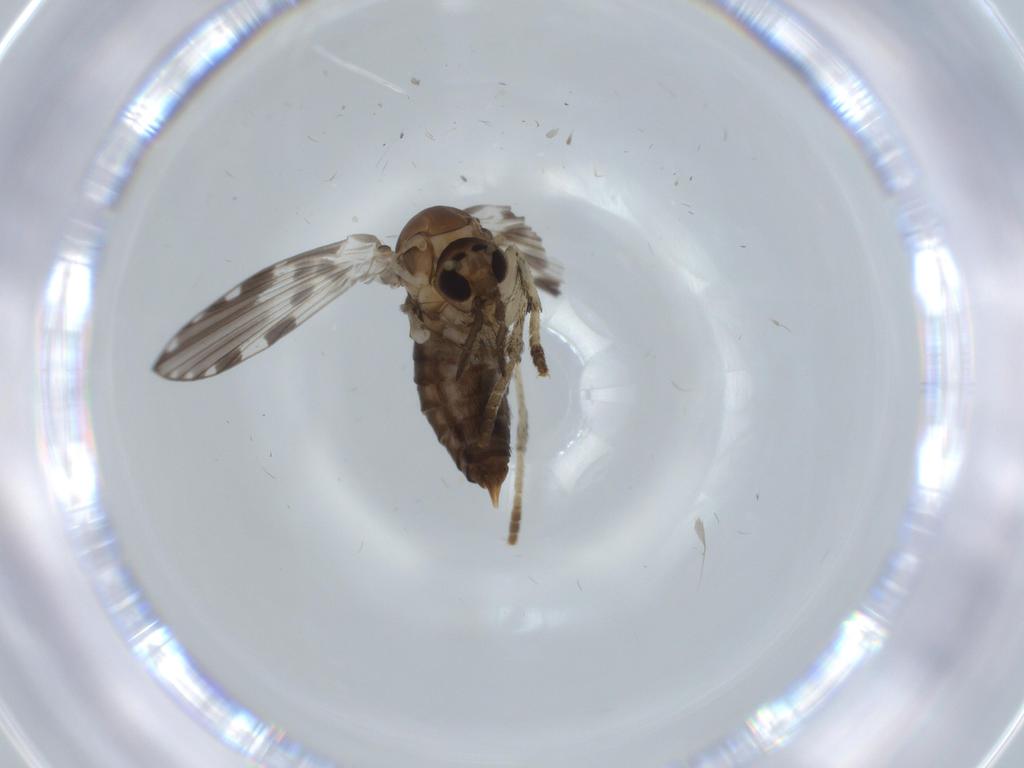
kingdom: Animalia
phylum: Arthropoda
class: Insecta
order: Diptera
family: Psychodidae
